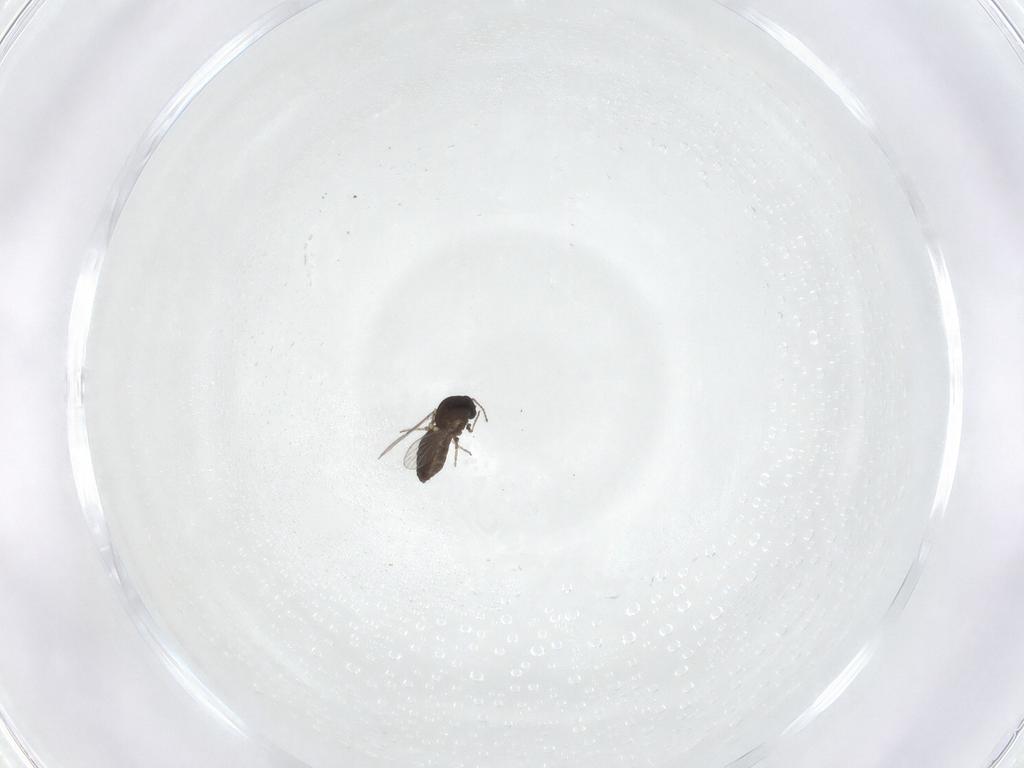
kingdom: Animalia
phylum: Arthropoda
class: Insecta
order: Diptera
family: Ceratopogonidae
